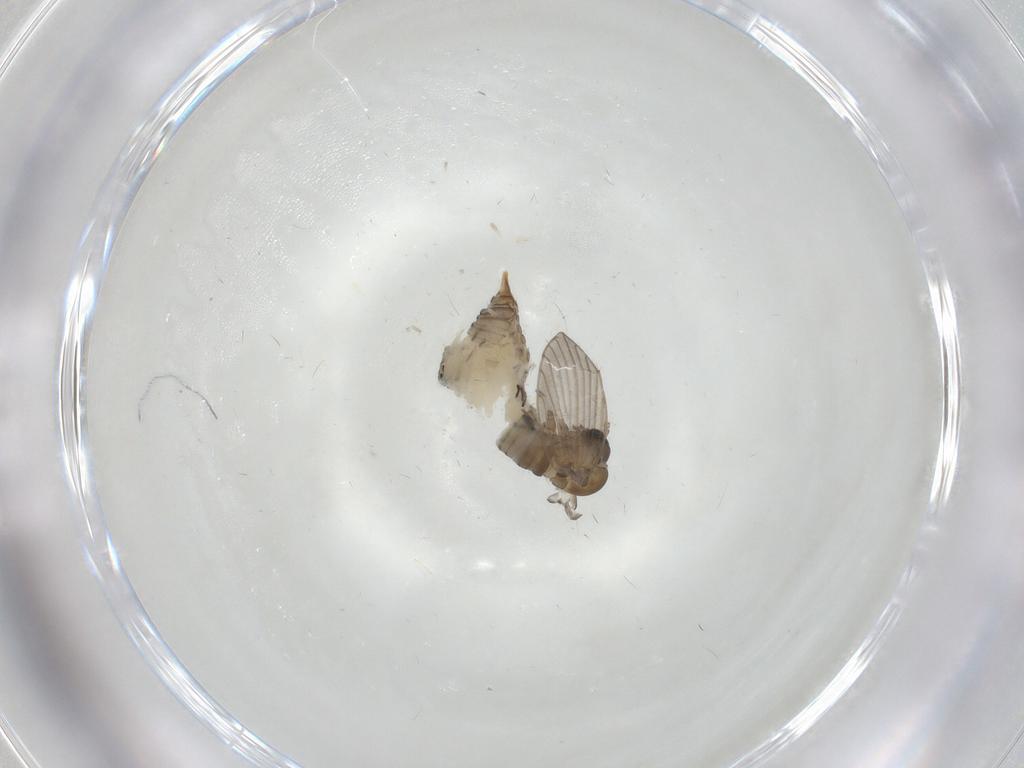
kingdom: Animalia
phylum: Arthropoda
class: Insecta
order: Diptera
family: Psychodidae
